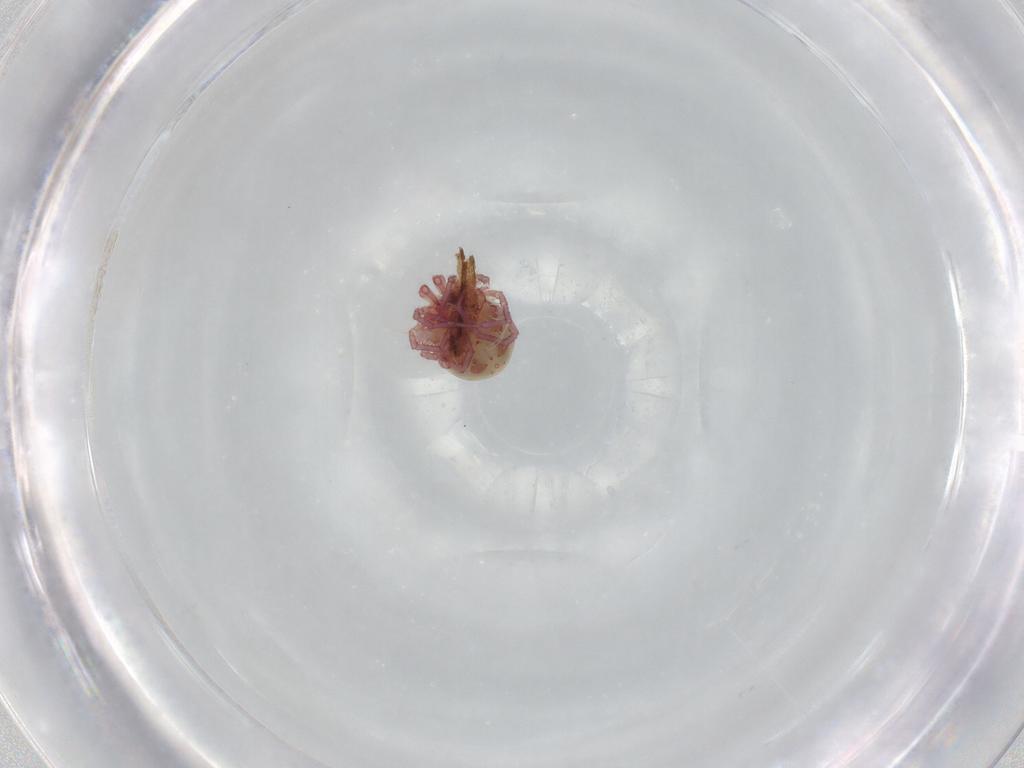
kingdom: Animalia
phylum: Arthropoda
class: Arachnida
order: Trombidiformes
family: Pionidae
